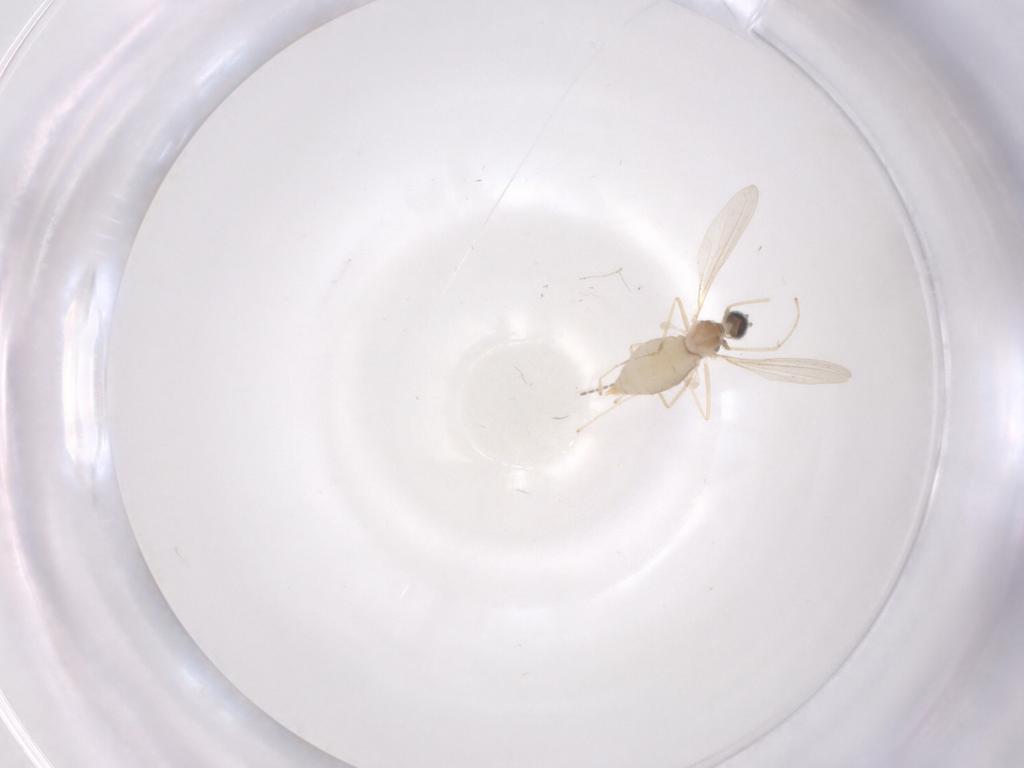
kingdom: Animalia
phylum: Arthropoda
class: Insecta
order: Diptera
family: Cecidomyiidae
